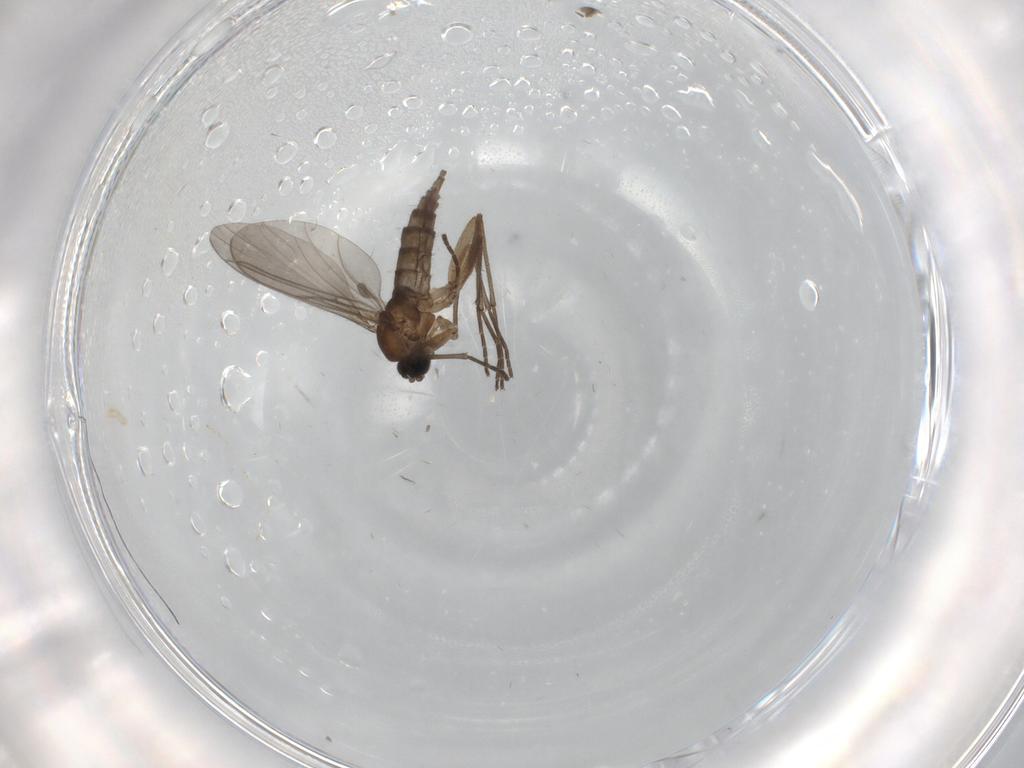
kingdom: Animalia
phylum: Arthropoda
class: Insecta
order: Diptera
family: Sciaridae
